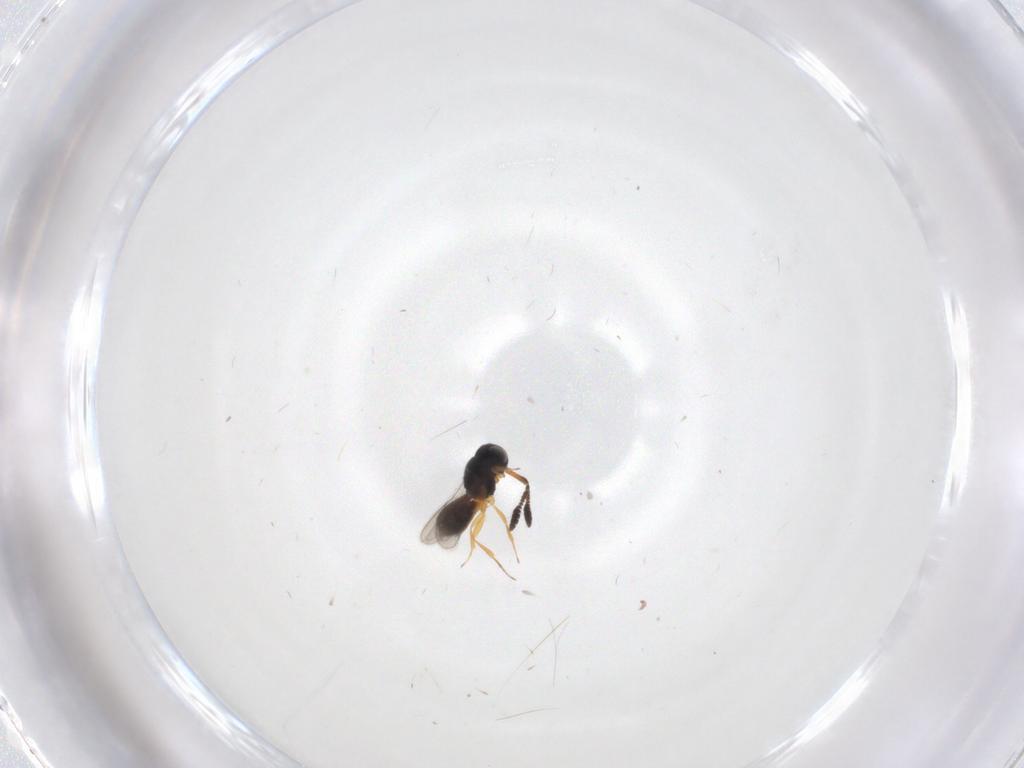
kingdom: Animalia
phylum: Arthropoda
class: Insecta
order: Hymenoptera
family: Scelionidae
